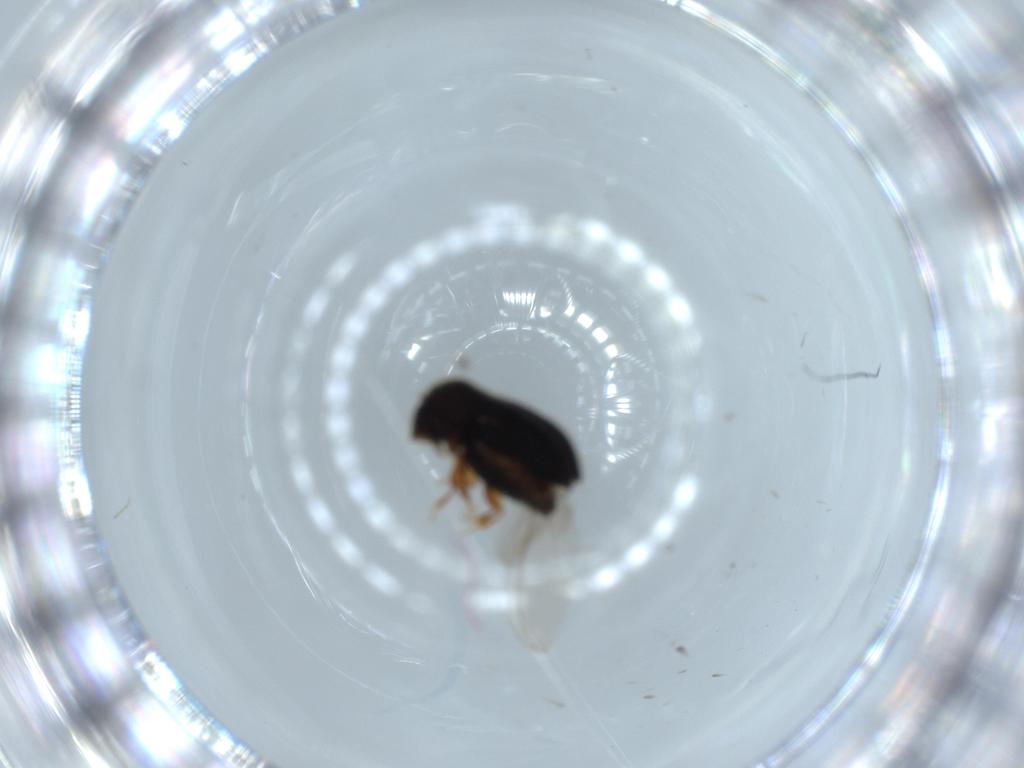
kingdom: Animalia
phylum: Arthropoda
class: Insecta
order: Coleoptera
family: Curculionidae
